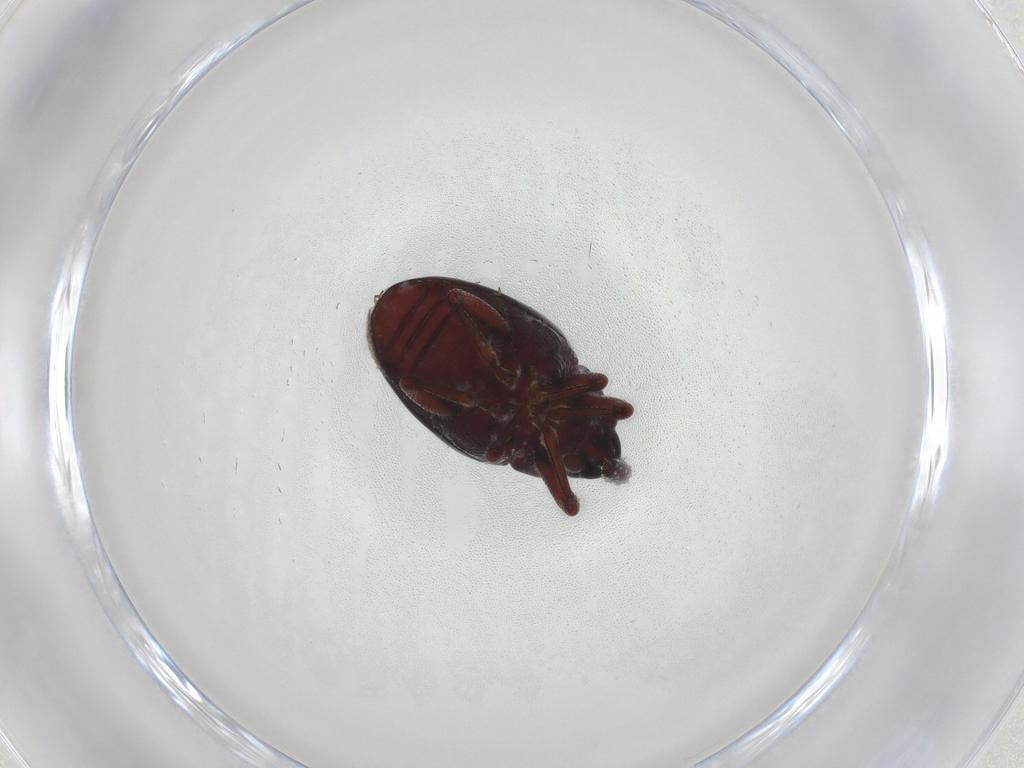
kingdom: Animalia
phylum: Arthropoda
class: Insecta
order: Coleoptera
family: Curculionidae
